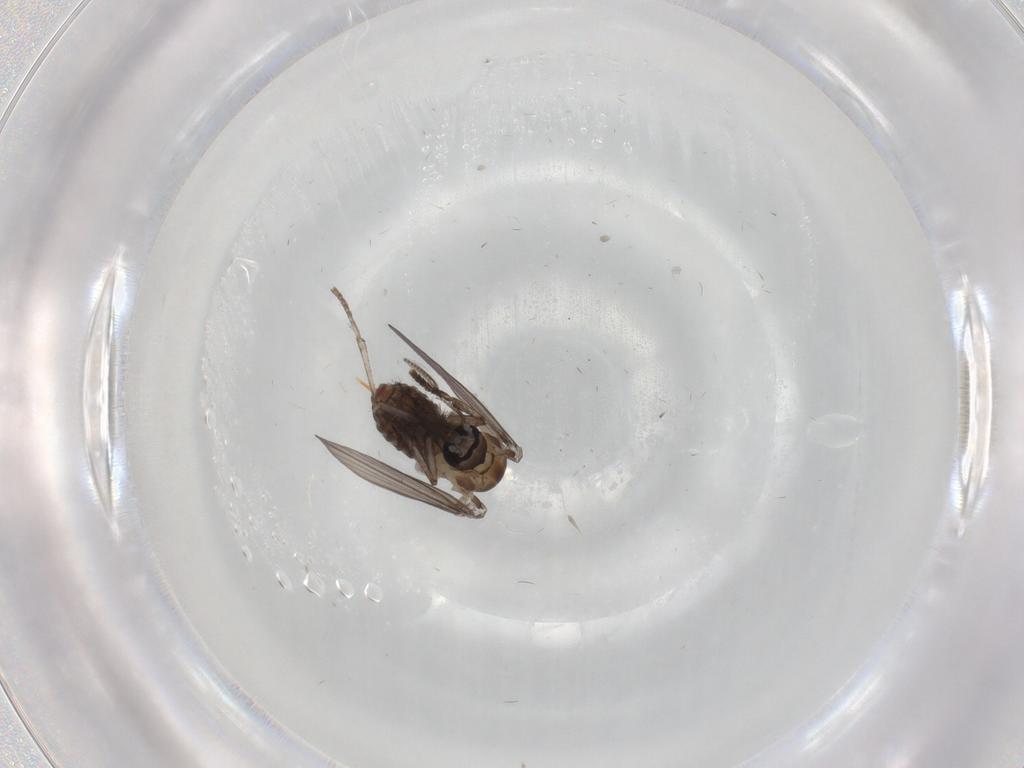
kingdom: Animalia
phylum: Arthropoda
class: Insecta
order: Diptera
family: Psychodidae
